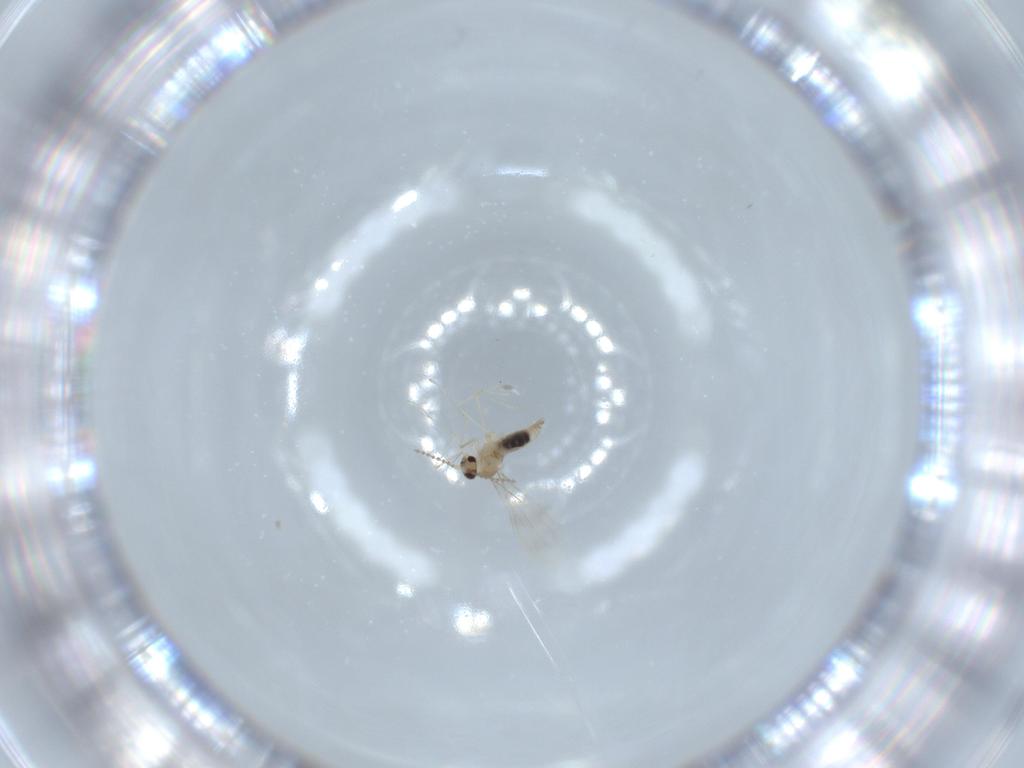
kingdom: Animalia
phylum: Arthropoda
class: Insecta
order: Diptera
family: Cecidomyiidae
